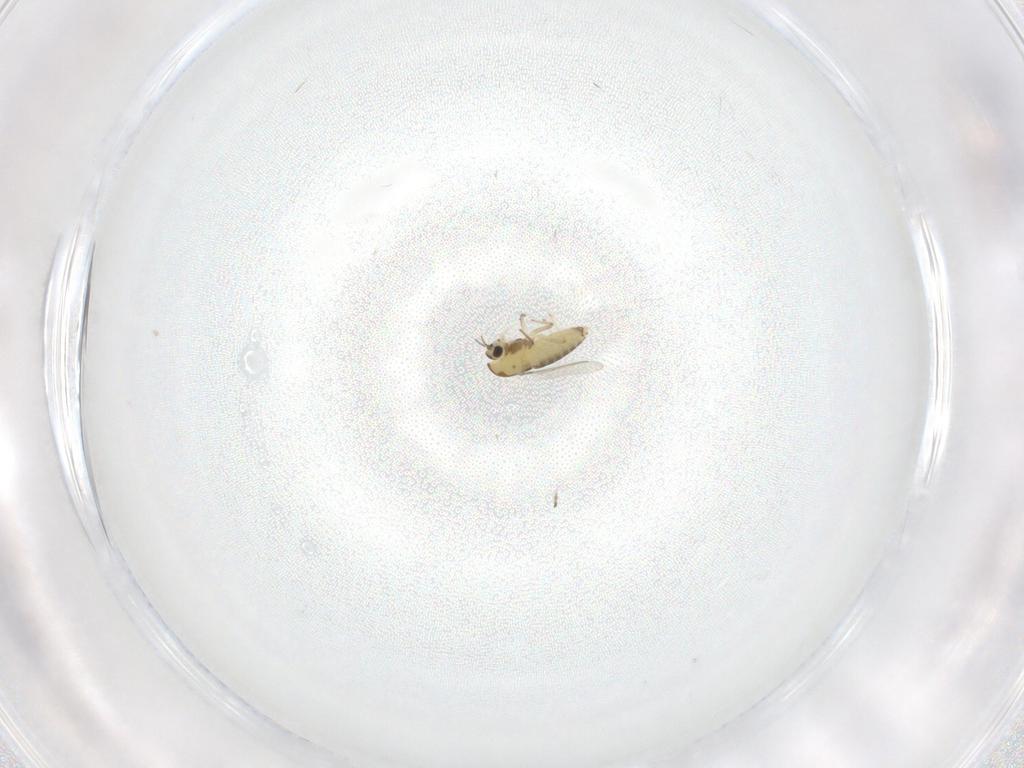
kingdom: Animalia
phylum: Arthropoda
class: Insecta
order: Diptera
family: Chironomidae
